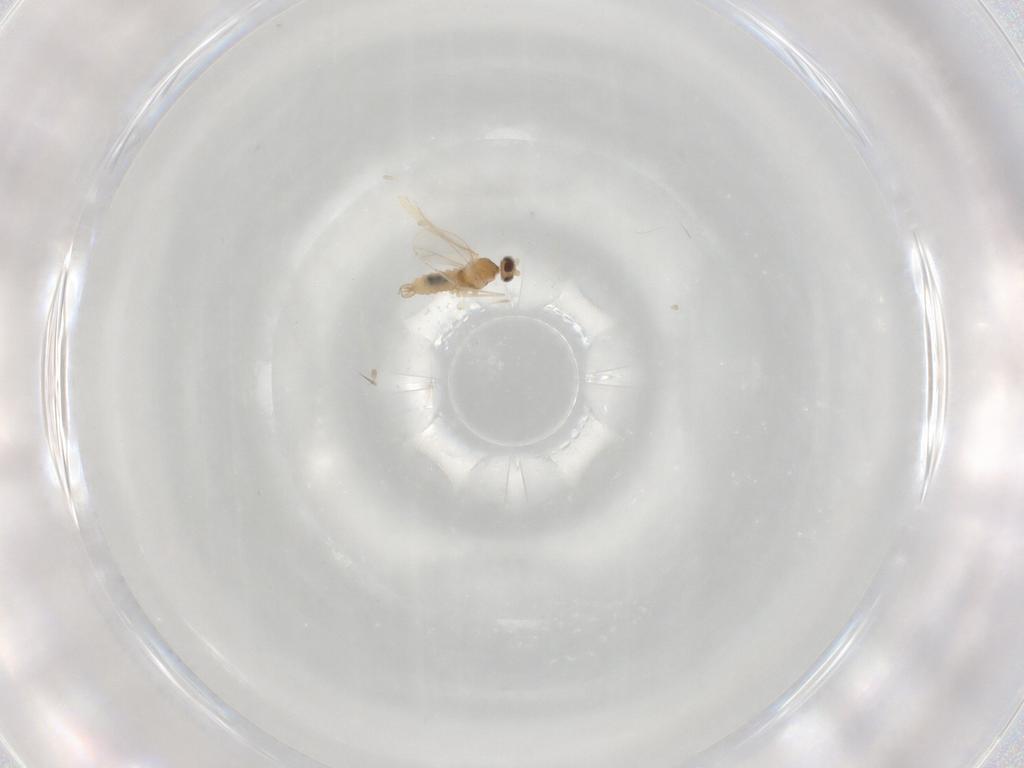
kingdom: Animalia
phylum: Arthropoda
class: Insecta
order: Diptera
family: Cecidomyiidae
